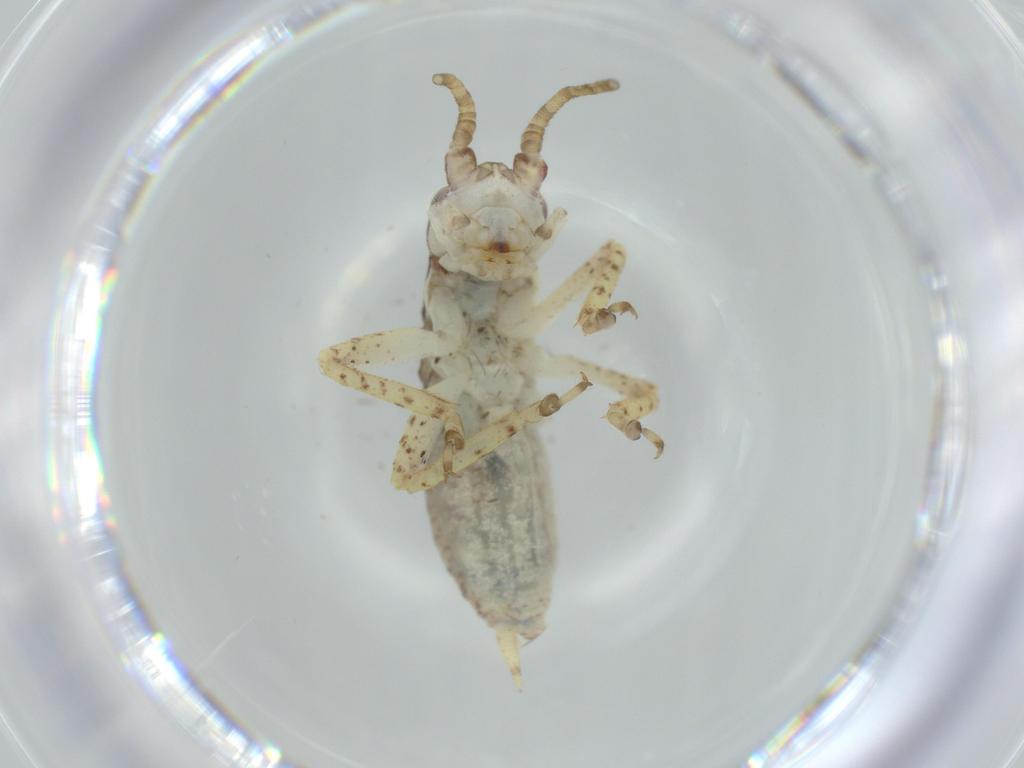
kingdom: Animalia
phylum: Arthropoda
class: Insecta
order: Orthoptera
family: Gryllidae
